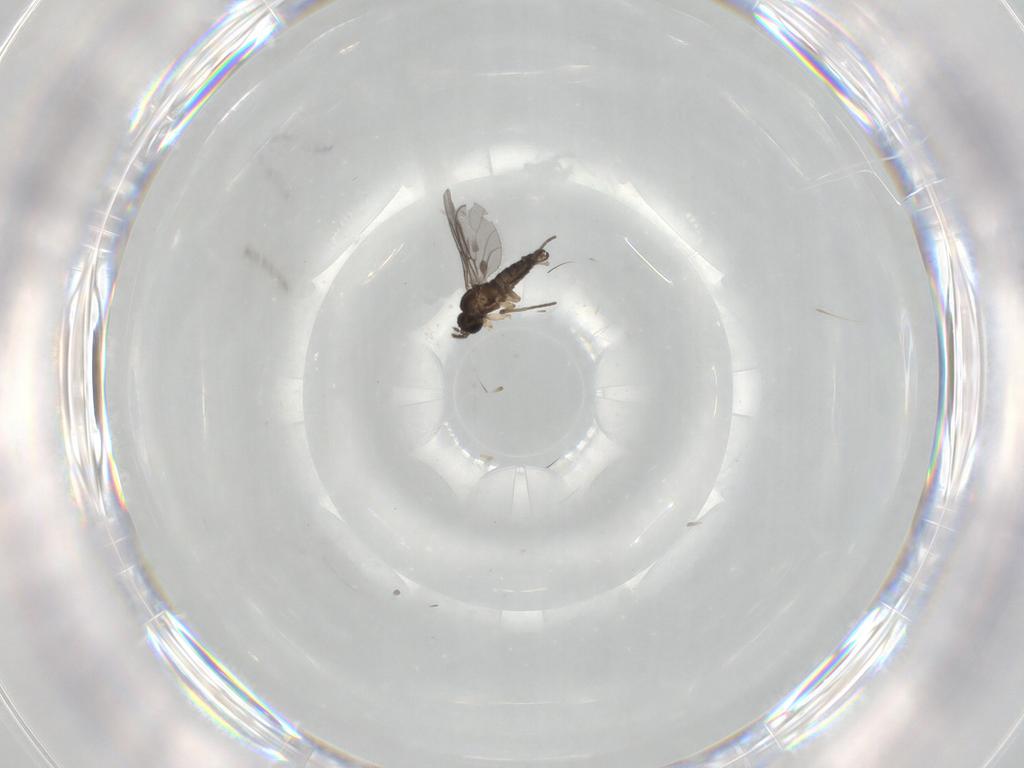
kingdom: Animalia
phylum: Arthropoda
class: Insecta
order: Diptera
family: Sciaridae
